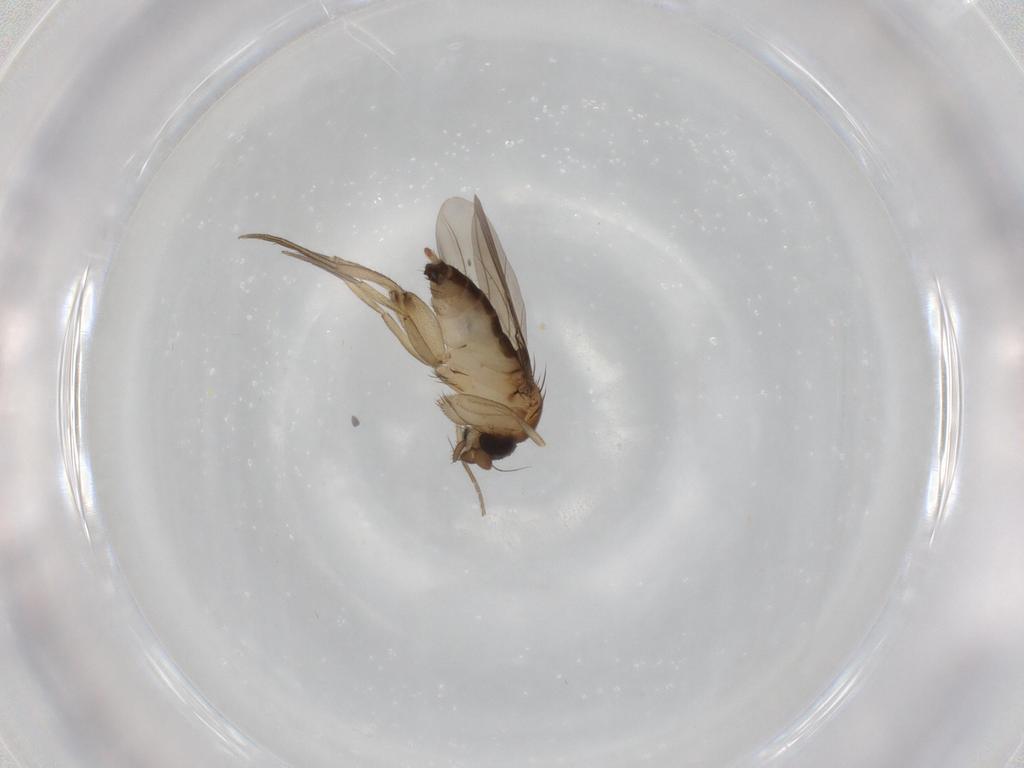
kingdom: Animalia
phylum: Arthropoda
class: Insecta
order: Diptera
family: Phoridae
